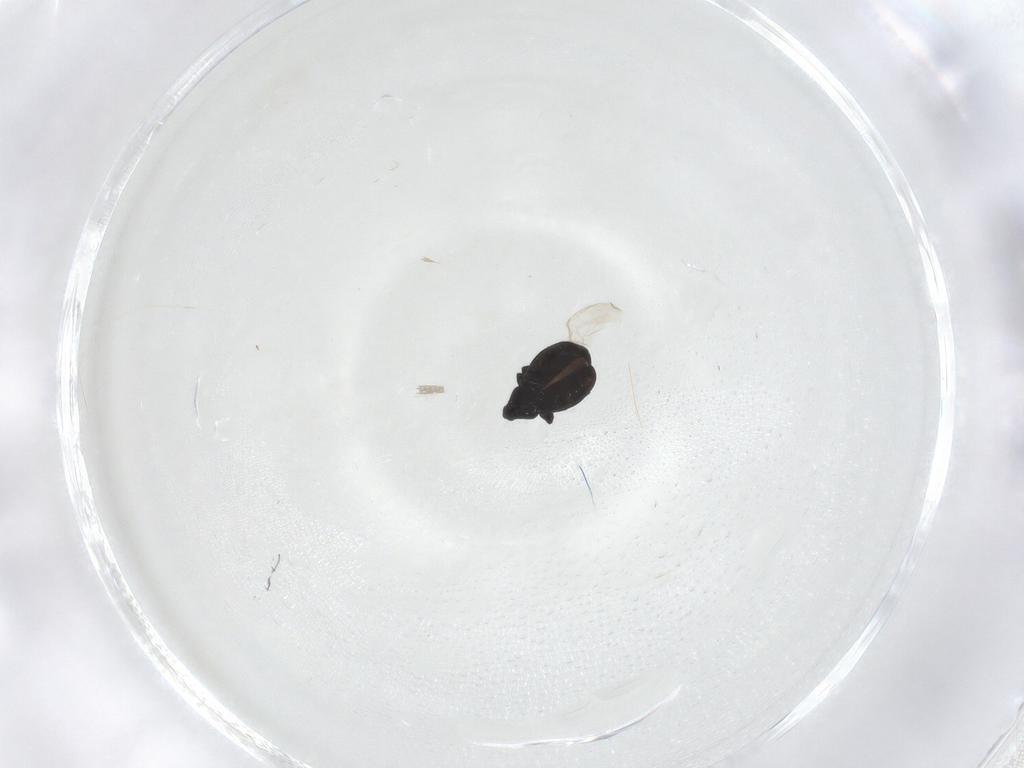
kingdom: Animalia
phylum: Arthropoda
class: Insecta
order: Coleoptera
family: Curculionidae
